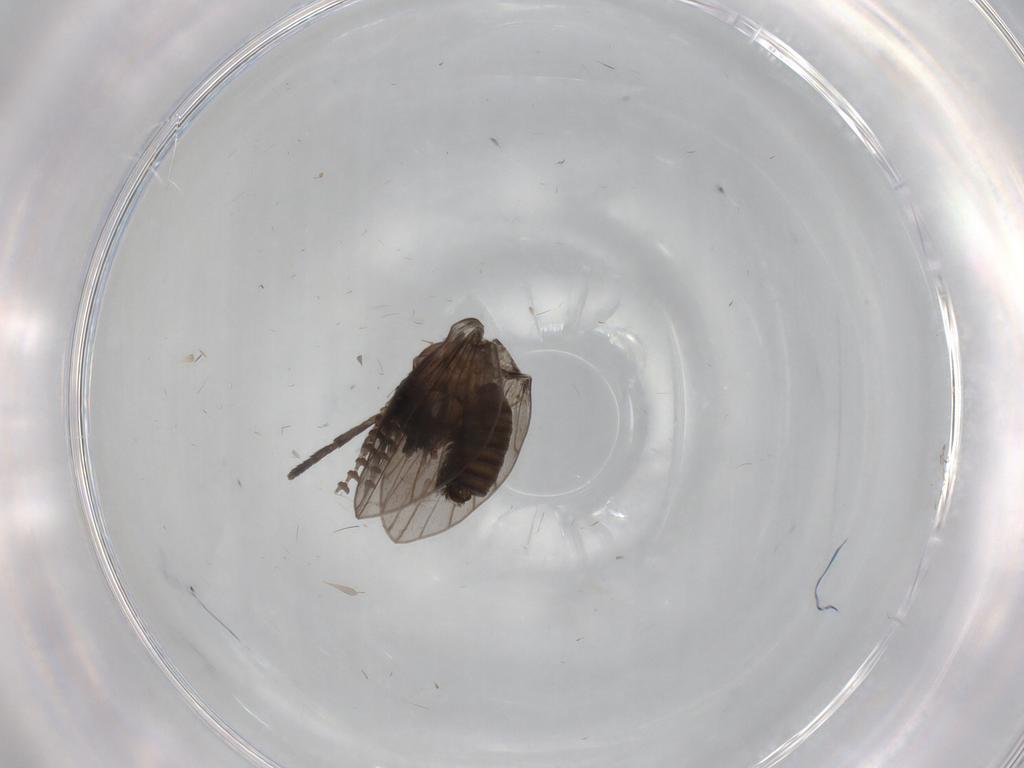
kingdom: Animalia
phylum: Arthropoda
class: Insecta
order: Diptera
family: Psychodidae
